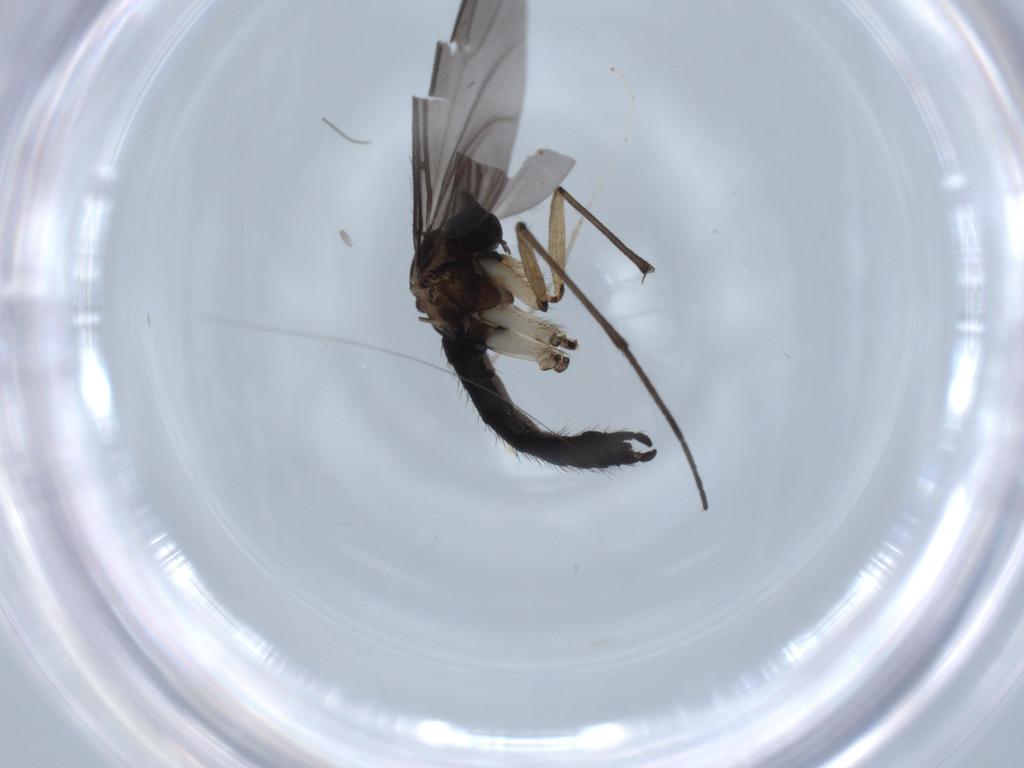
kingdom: Animalia
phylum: Arthropoda
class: Insecta
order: Diptera
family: Sciaridae
